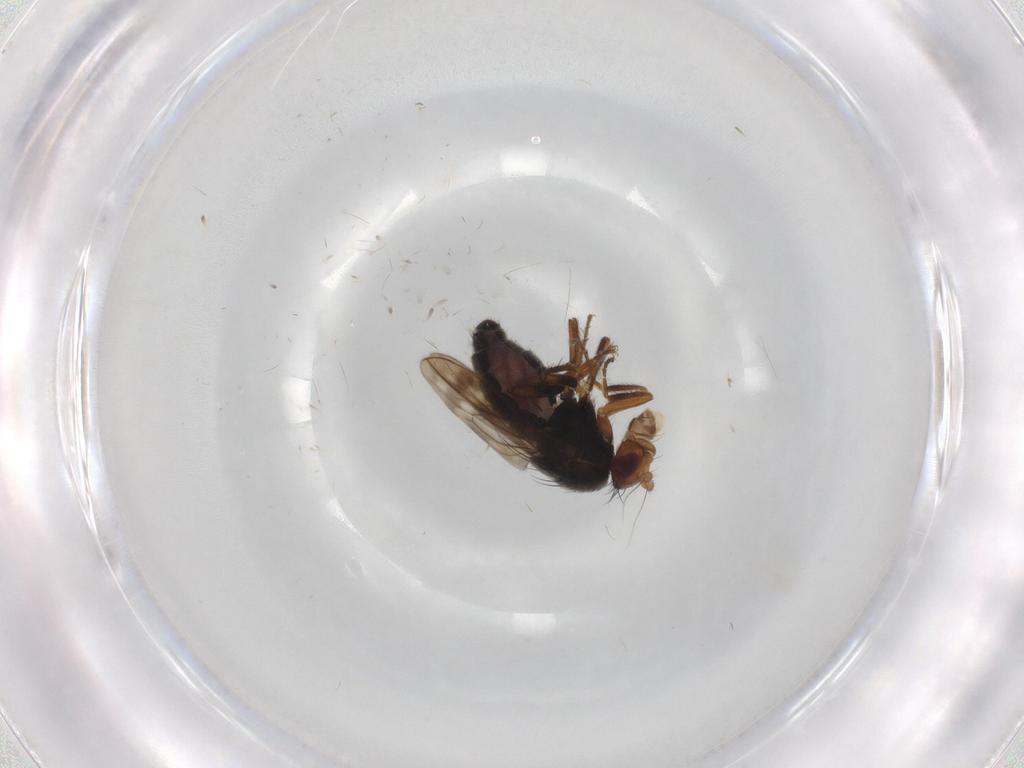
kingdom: Animalia
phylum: Arthropoda
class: Insecta
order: Diptera
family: Sphaeroceridae
